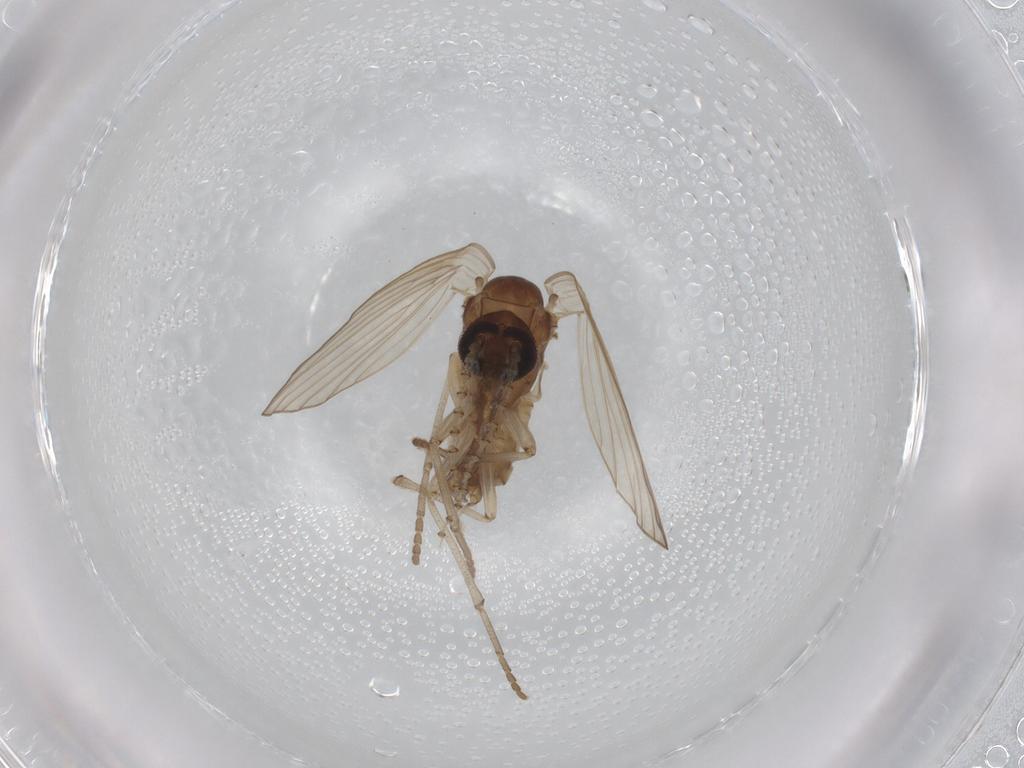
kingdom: Animalia
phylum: Arthropoda
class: Insecta
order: Diptera
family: Cecidomyiidae
